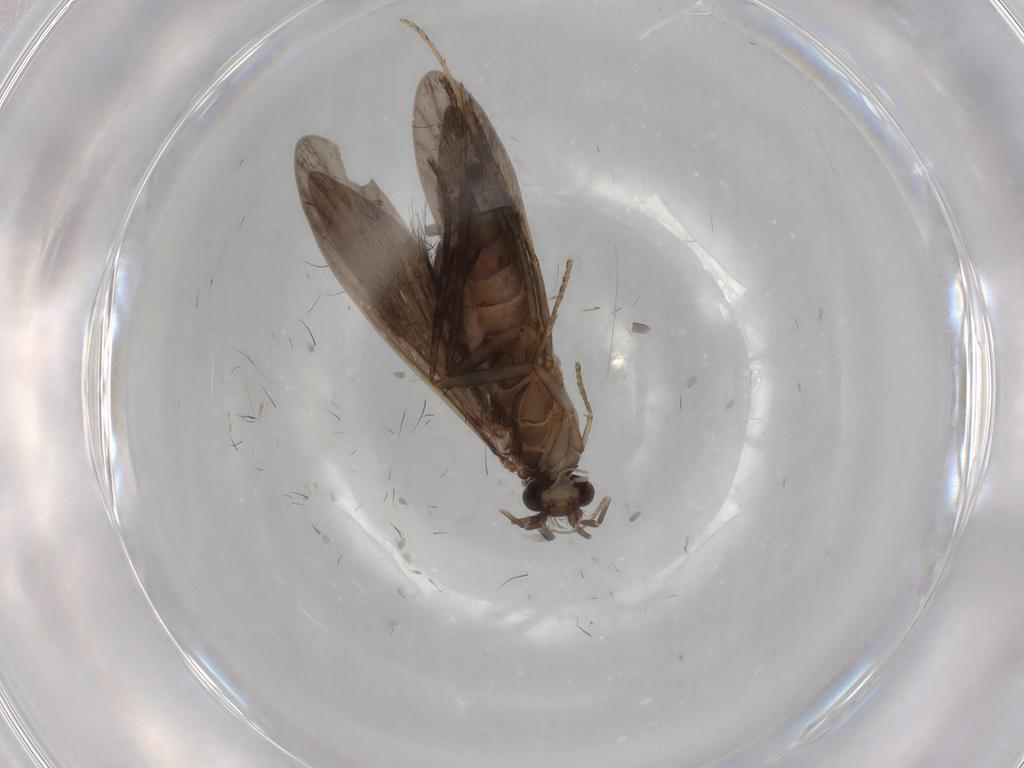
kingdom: Animalia
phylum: Arthropoda
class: Insecta
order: Trichoptera
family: Xiphocentronidae
